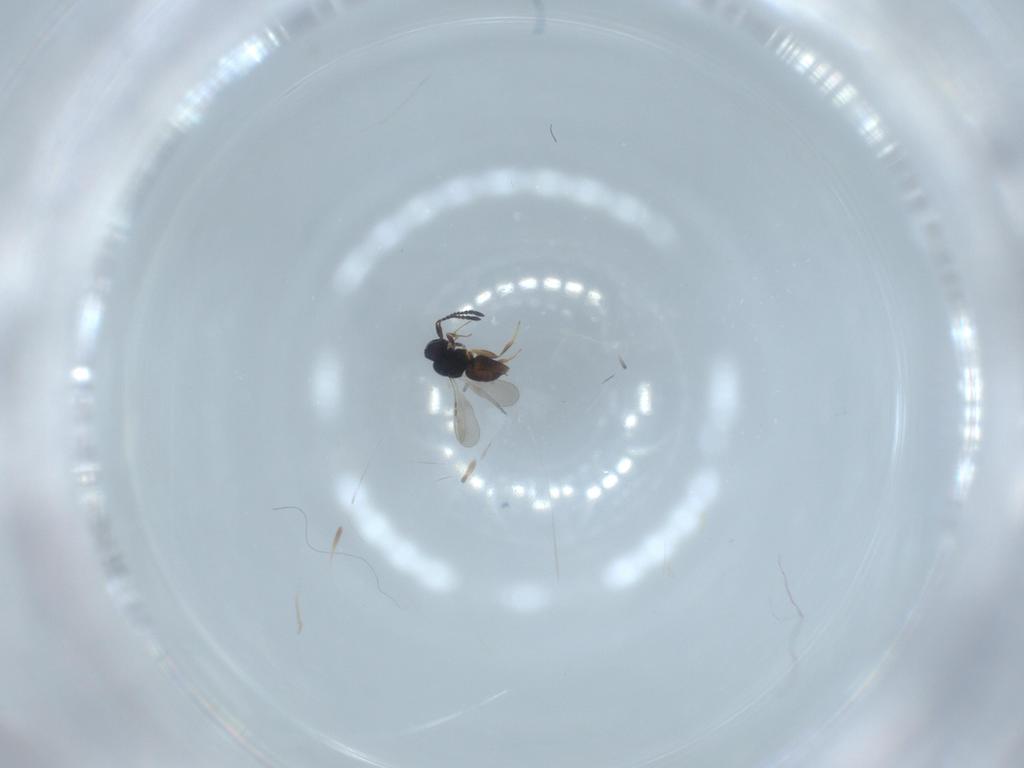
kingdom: Animalia
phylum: Arthropoda
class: Insecta
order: Hymenoptera
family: Ceraphronidae
